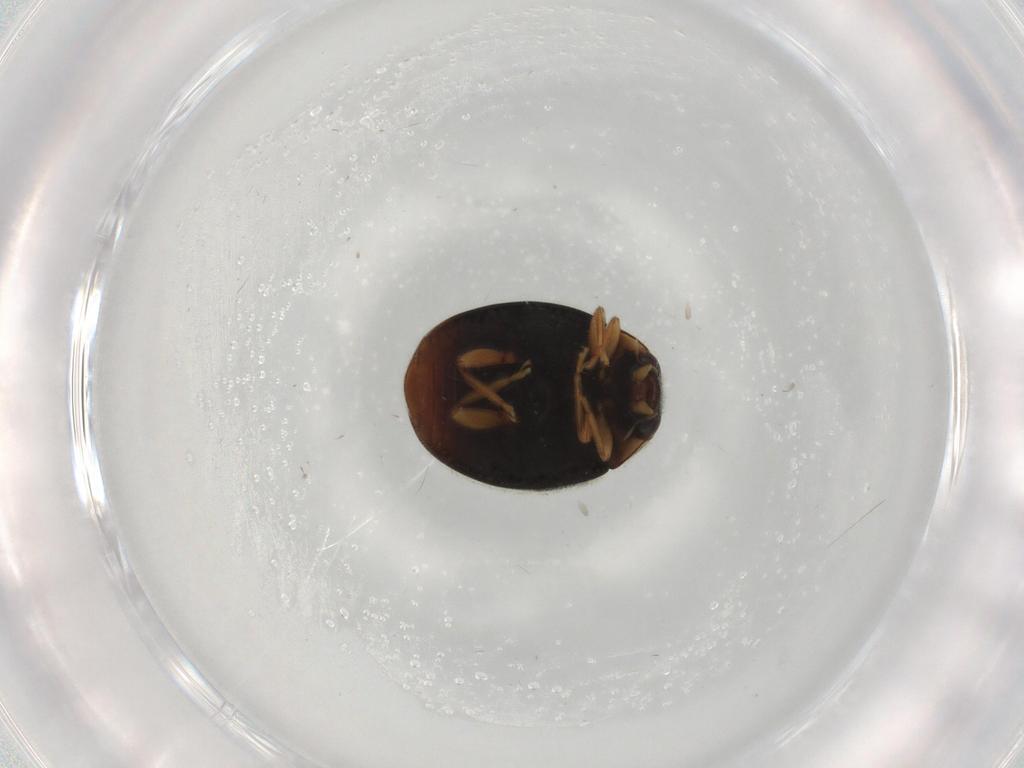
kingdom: Animalia
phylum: Arthropoda
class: Insecta
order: Coleoptera
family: Coccinellidae
